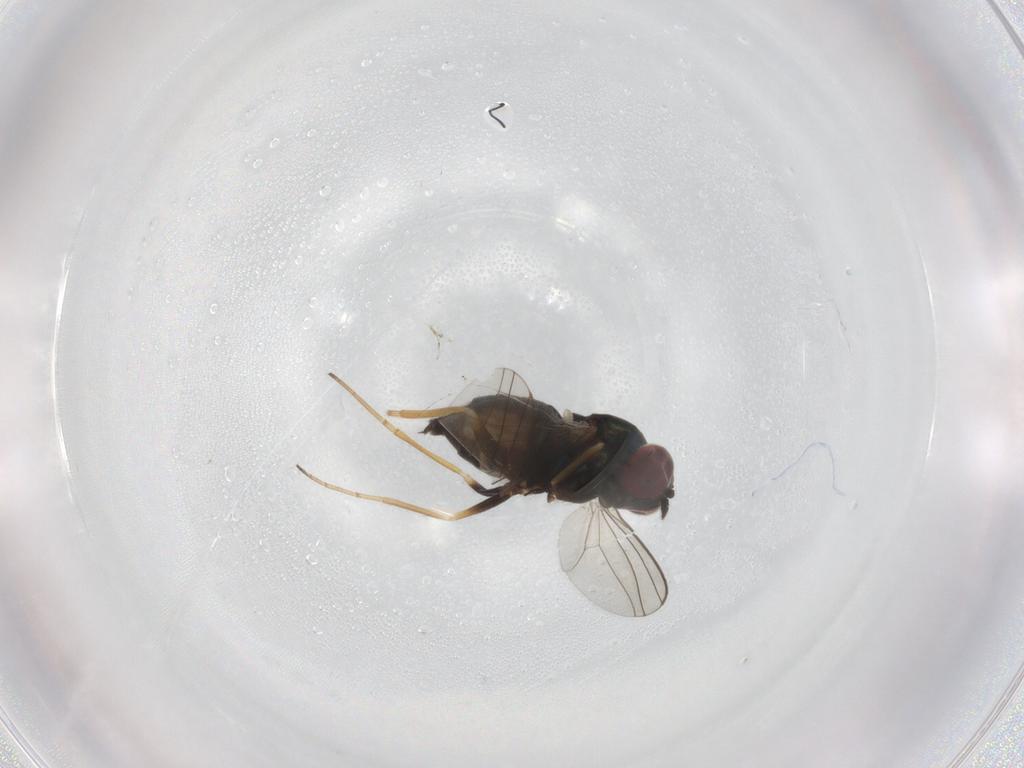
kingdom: Animalia
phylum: Arthropoda
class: Insecta
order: Diptera
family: Dolichopodidae
